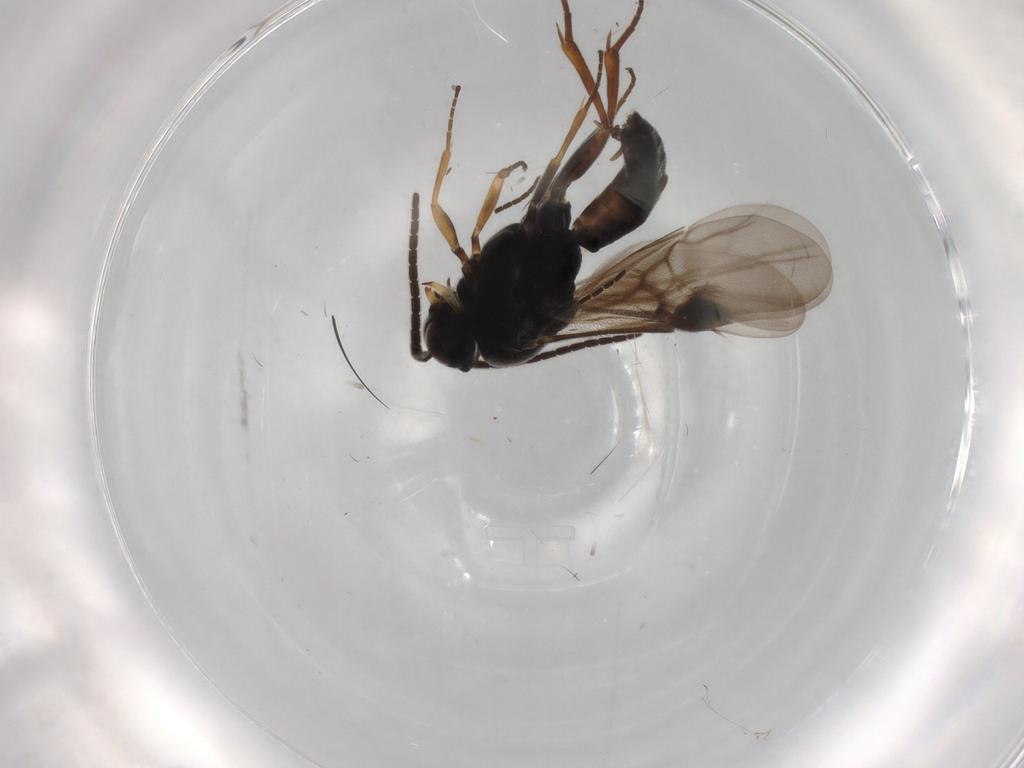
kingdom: Animalia
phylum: Arthropoda
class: Insecta
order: Hymenoptera
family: Braconidae
